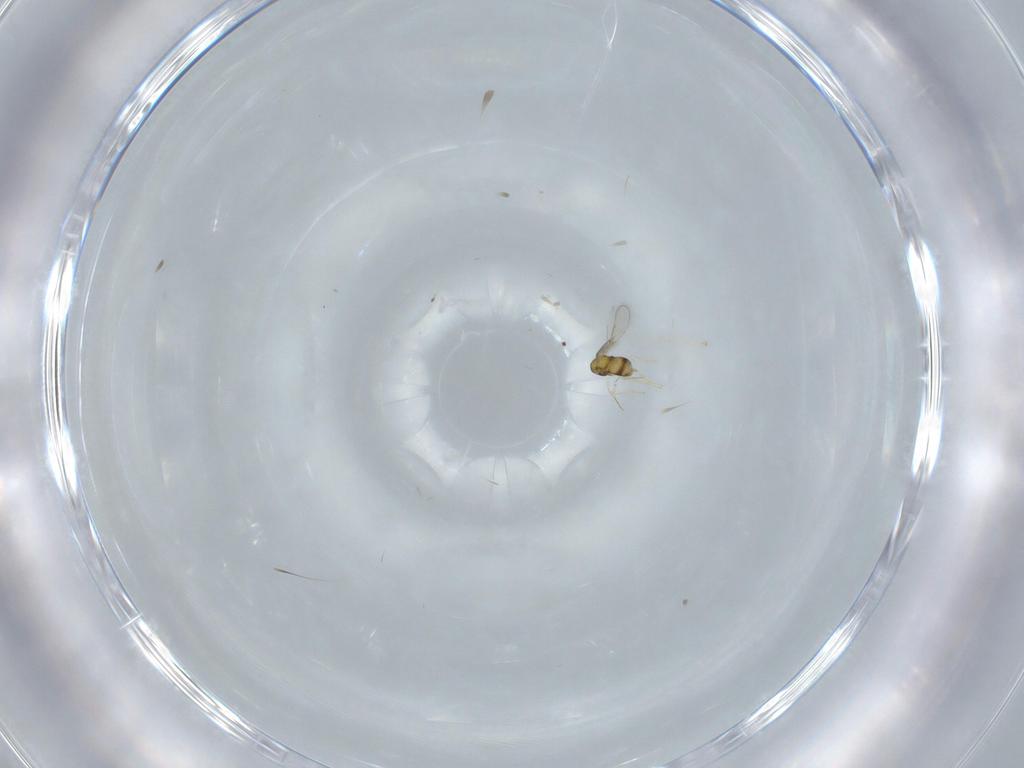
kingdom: Animalia
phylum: Arthropoda
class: Insecta
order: Hymenoptera
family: Aphelinidae
